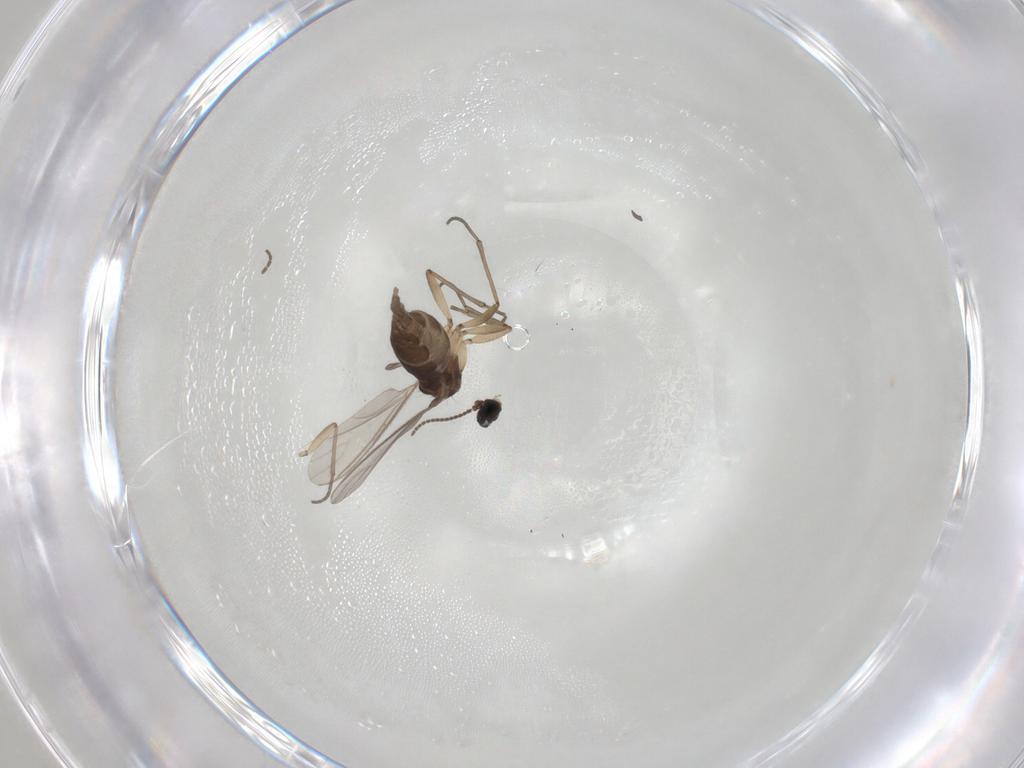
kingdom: Animalia
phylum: Arthropoda
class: Insecta
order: Diptera
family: Sciaridae
